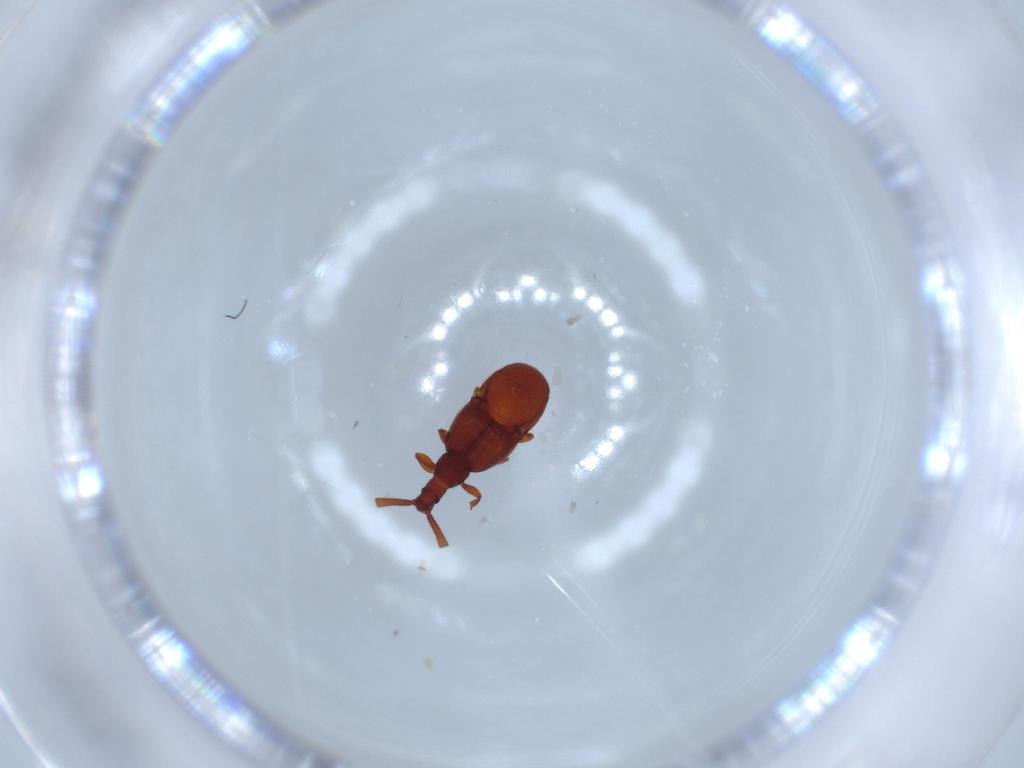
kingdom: Animalia
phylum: Arthropoda
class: Insecta
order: Coleoptera
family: Staphylinidae
